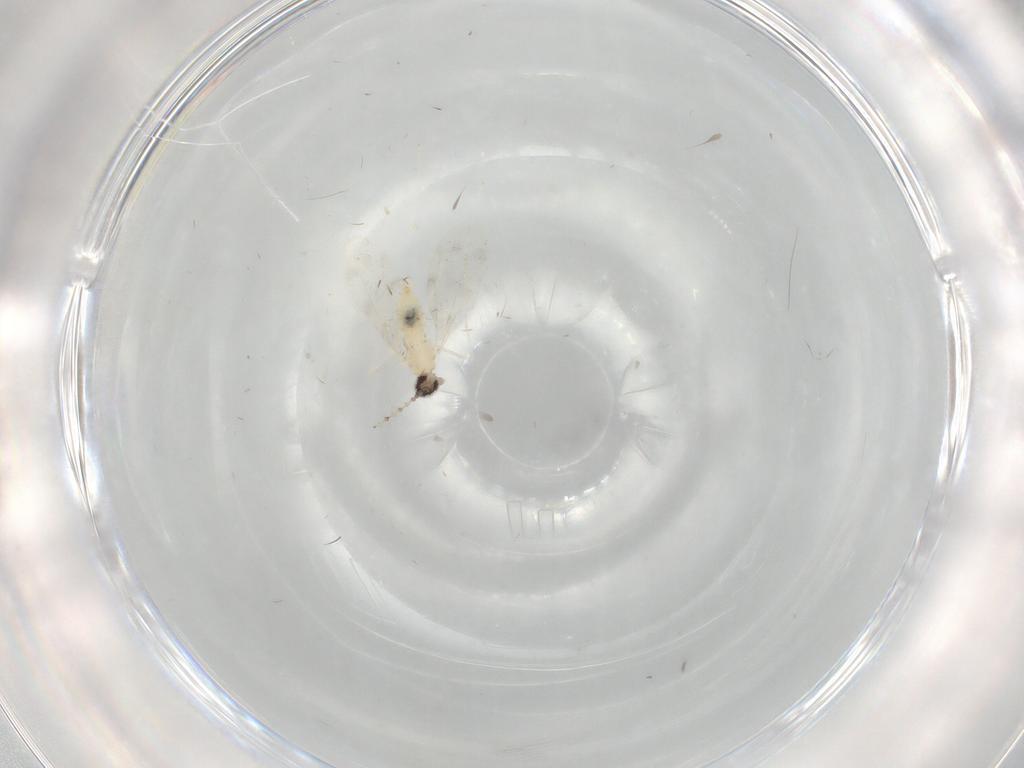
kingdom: Animalia
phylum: Arthropoda
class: Insecta
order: Diptera
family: Cecidomyiidae
